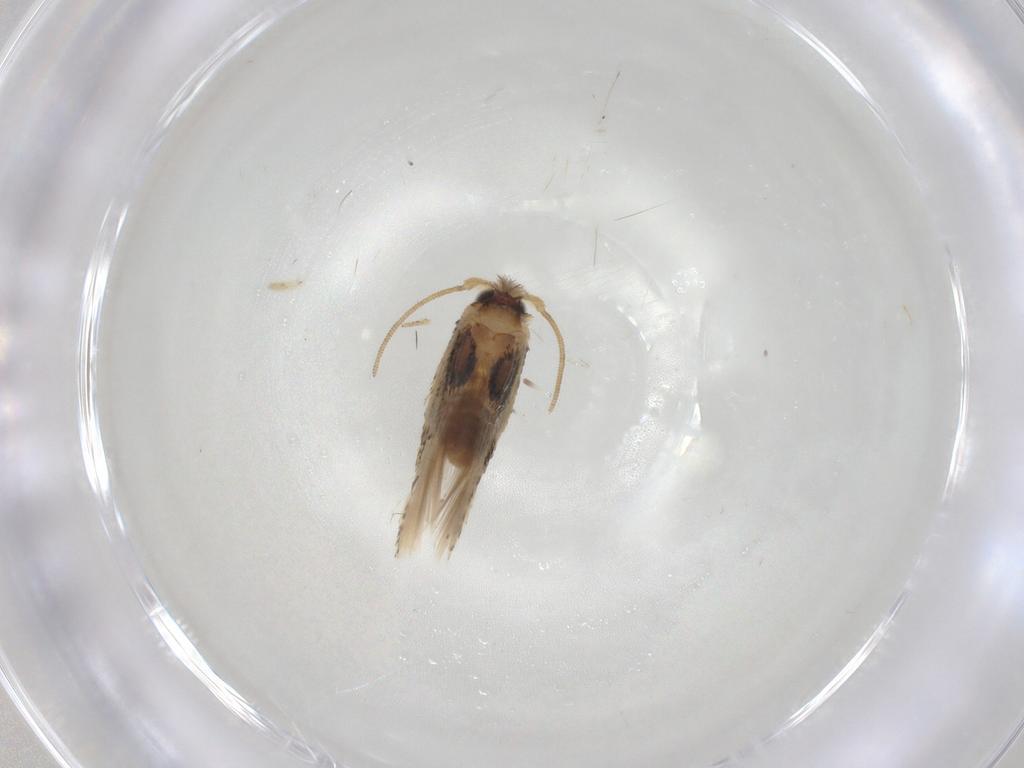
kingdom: Animalia
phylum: Arthropoda
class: Insecta
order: Lepidoptera
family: Nepticulidae
